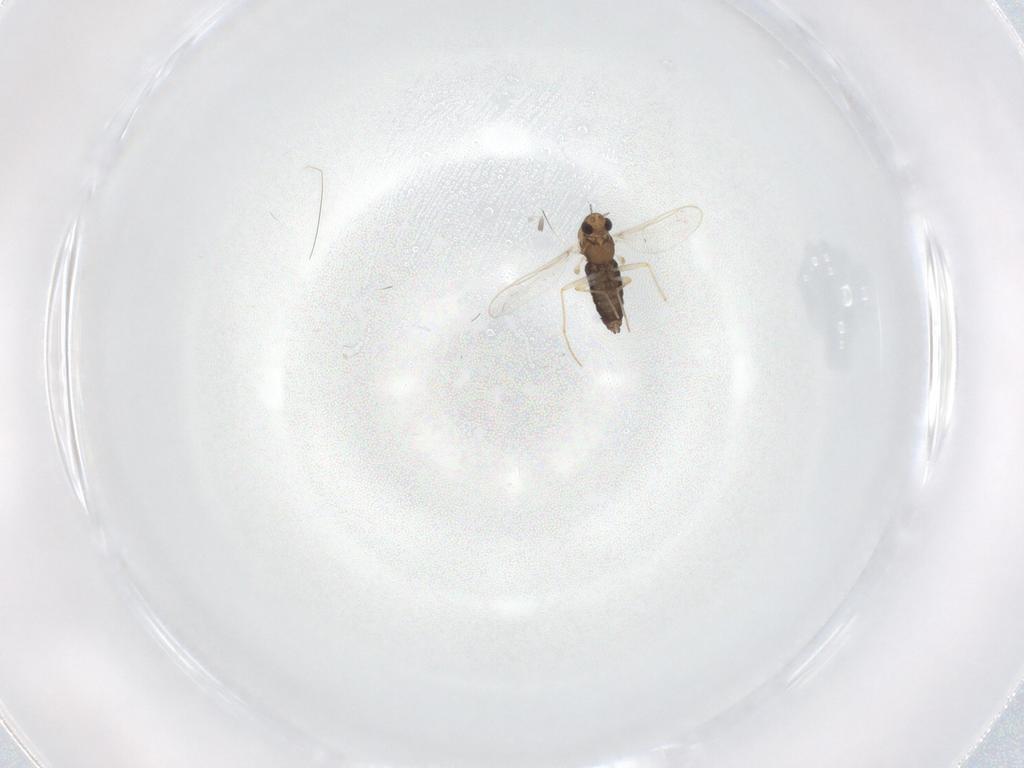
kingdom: Animalia
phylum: Arthropoda
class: Insecta
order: Diptera
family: Chironomidae
